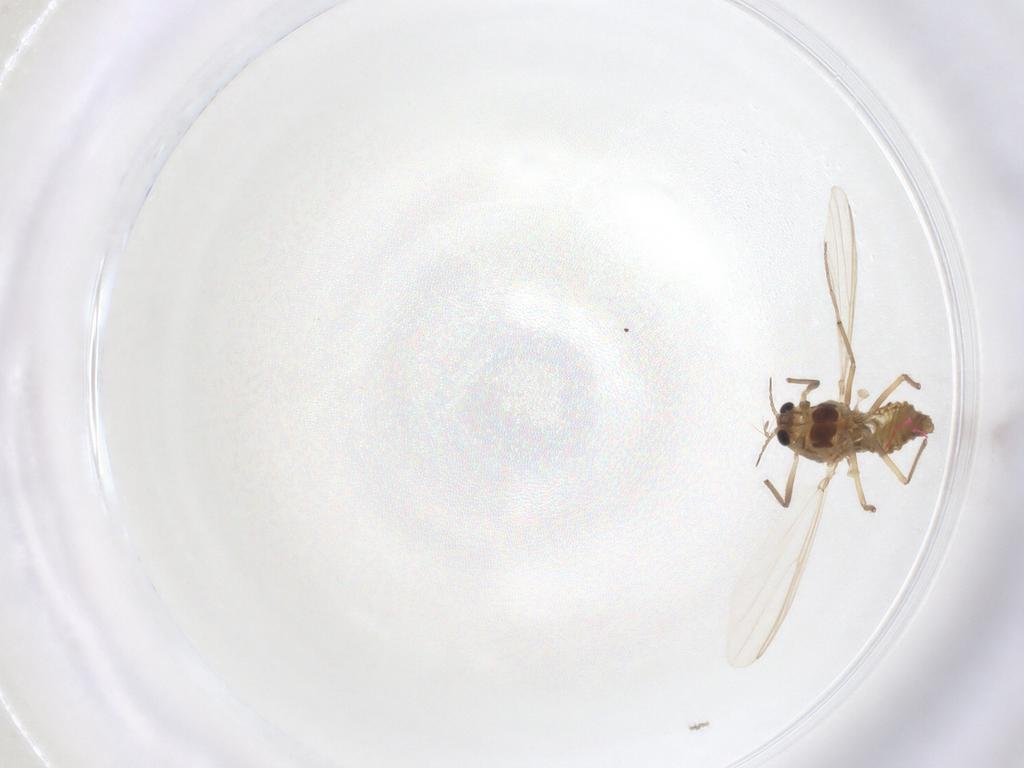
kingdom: Animalia
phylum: Arthropoda
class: Insecta
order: Diptera
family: Chironomidae
